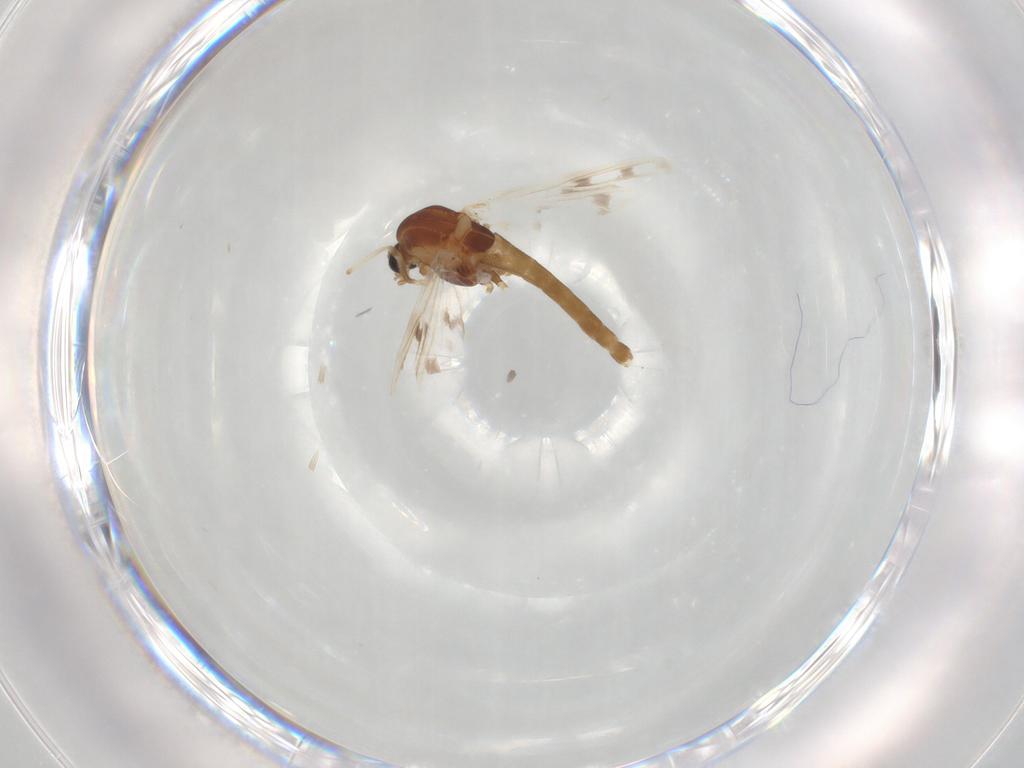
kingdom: Animalia
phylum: Arthropoda
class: Insecta
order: Diptera
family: Chironomidae
